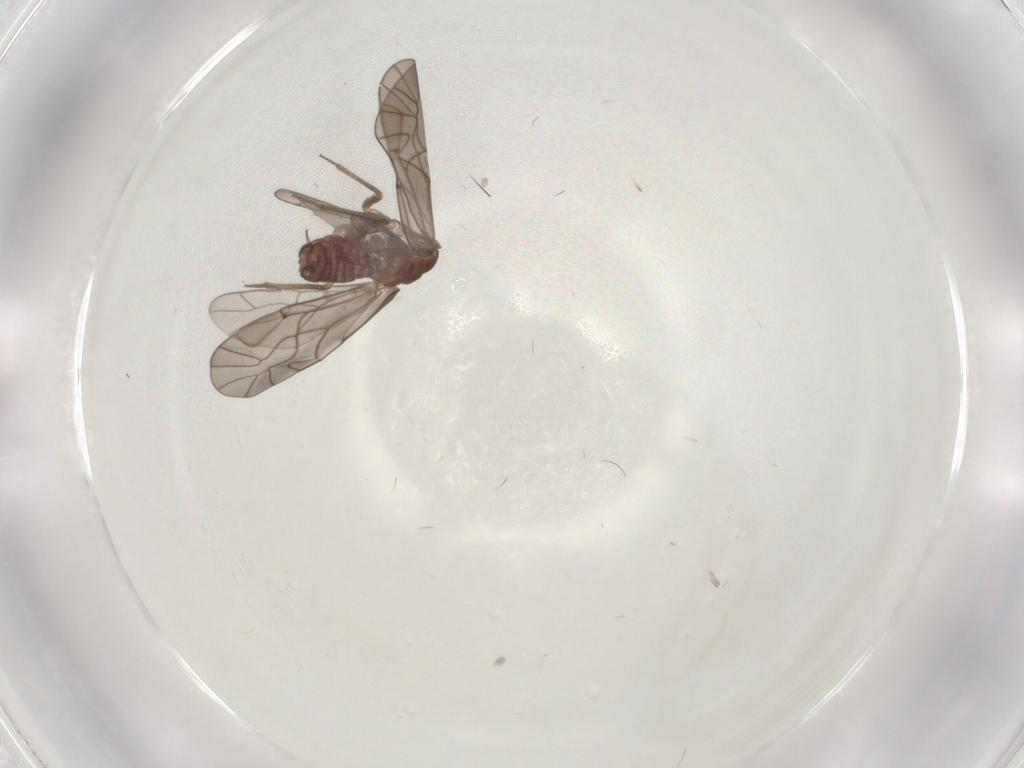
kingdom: Animalia
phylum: Arthropoda
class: Insecta
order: Psocodea
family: Lachesillidae
